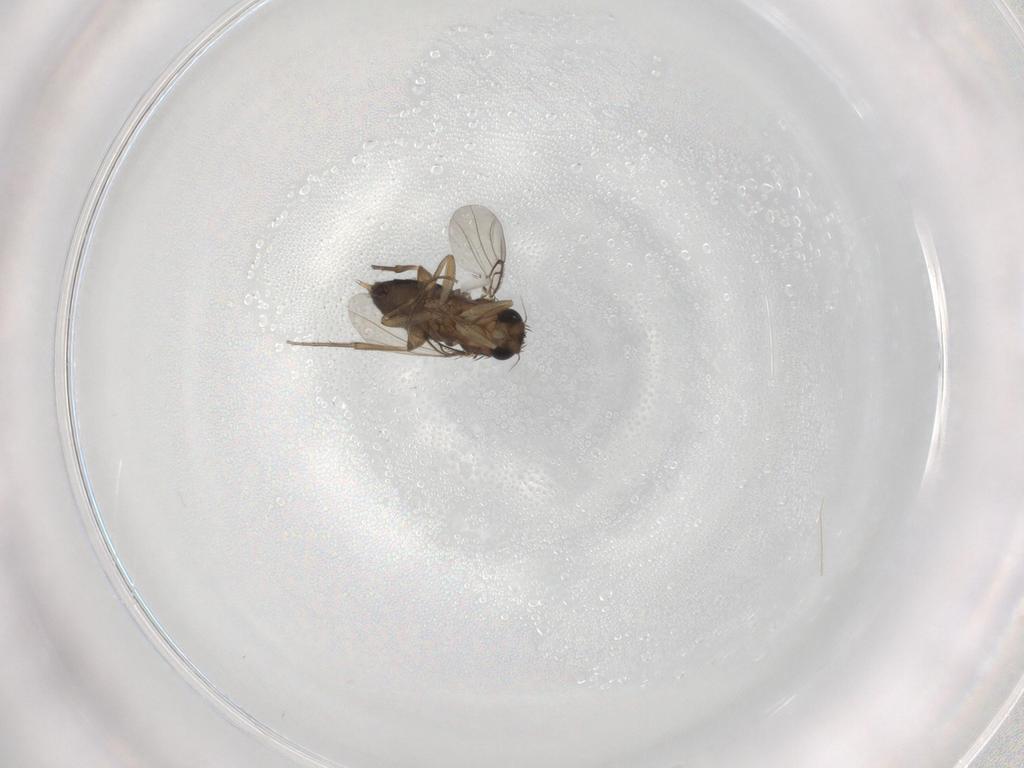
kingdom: Animalia
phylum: Arthropoda
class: Insecta
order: Diptera
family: Phoridae
